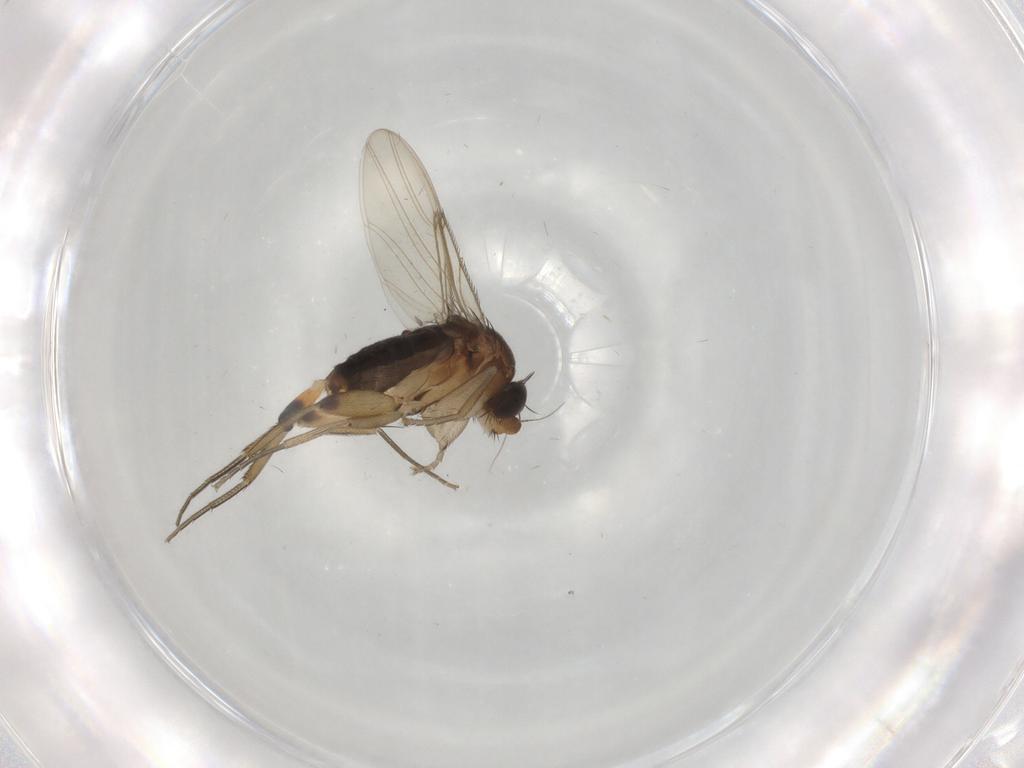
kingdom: Animalia
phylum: Arthropoda
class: Insecta
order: Diptera
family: Phoridae
